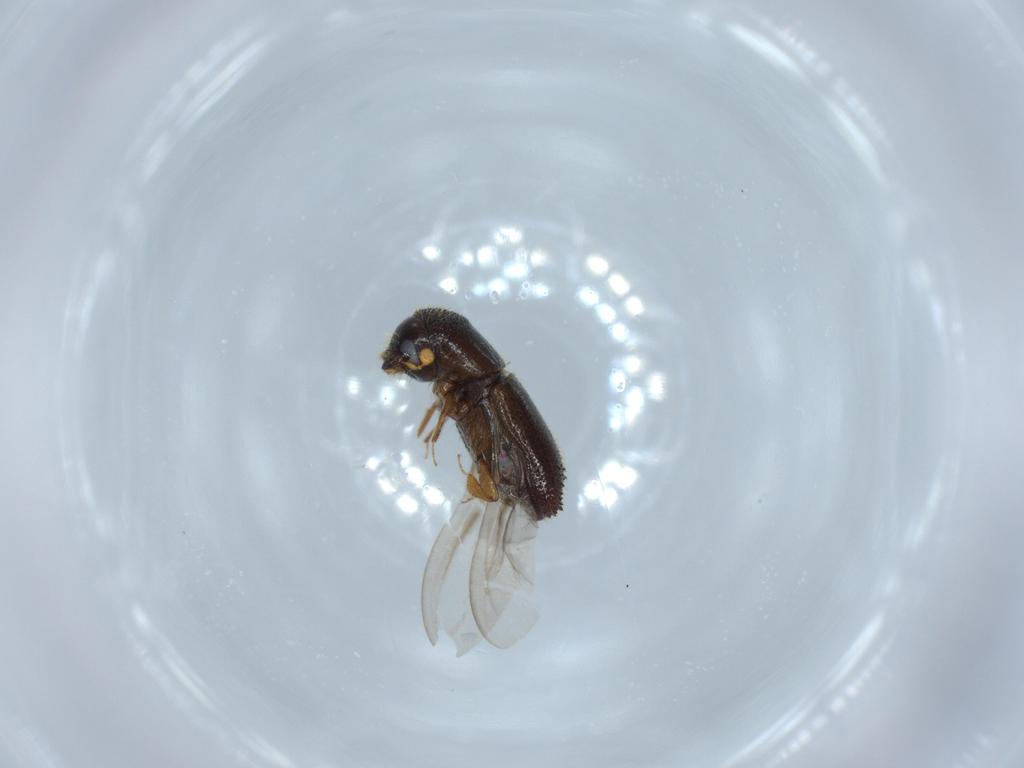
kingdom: Animalia
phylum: Arthropoda
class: Insecta
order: Coleoptera
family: Curculionidae
